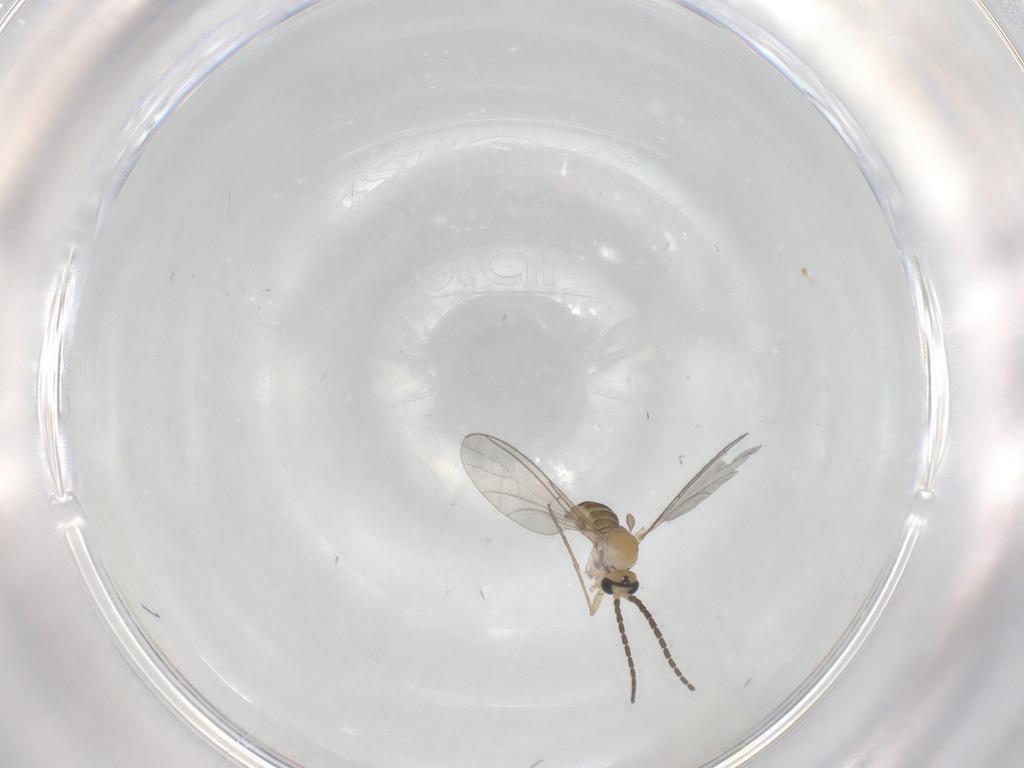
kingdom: Animalia
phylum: Arthropoda
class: Insecta
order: Diptera
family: Sciaridae
